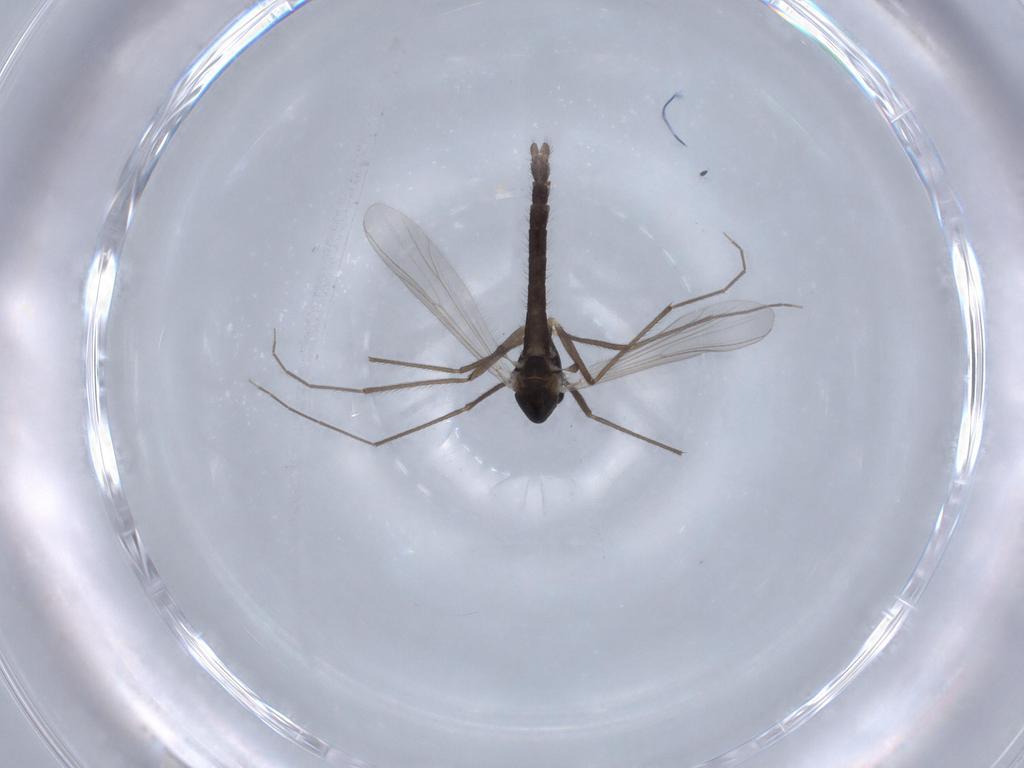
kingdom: Animalia
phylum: Arthropoda
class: Insecta
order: Diptera
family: Chironomidae
